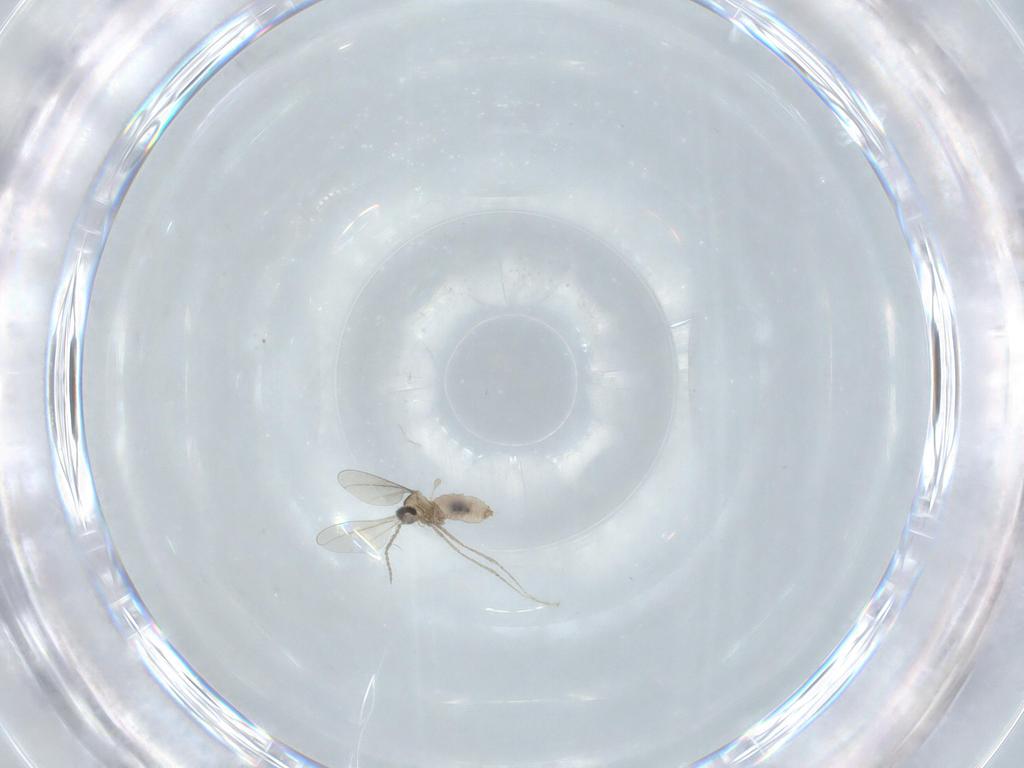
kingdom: Animalia
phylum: Arthropoda
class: Insecta
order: Diptera
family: Cecidomyiidae
